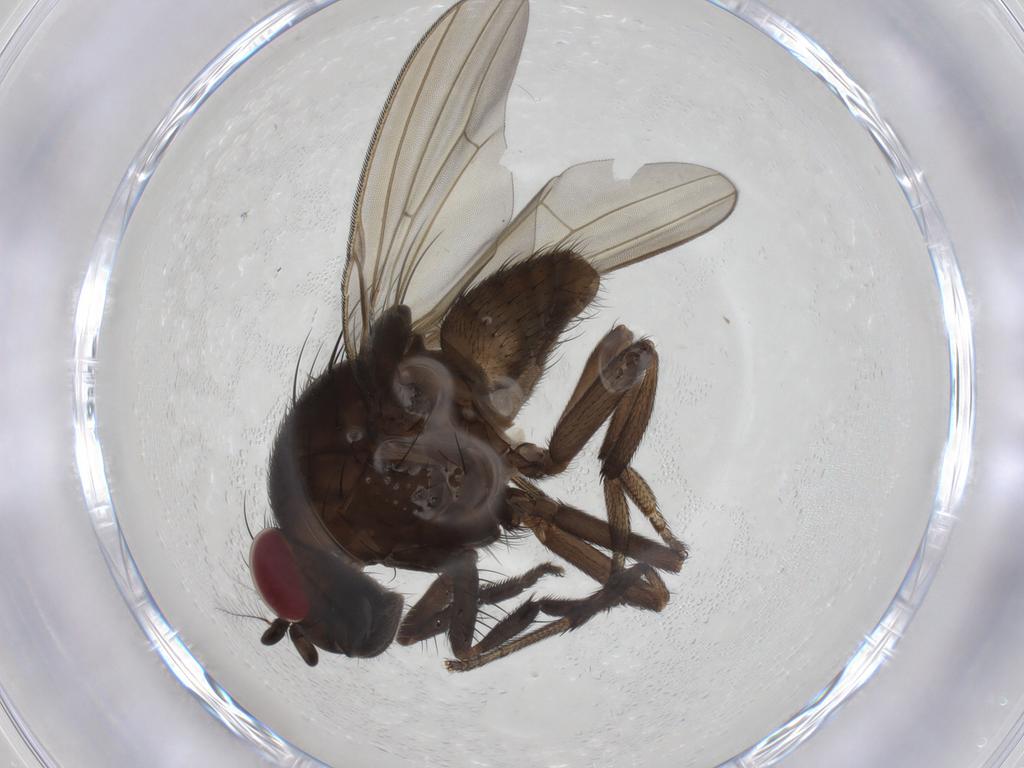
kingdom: Animalia
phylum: Arthropoda
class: Insecta
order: Diptera
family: Lauxaniidae
